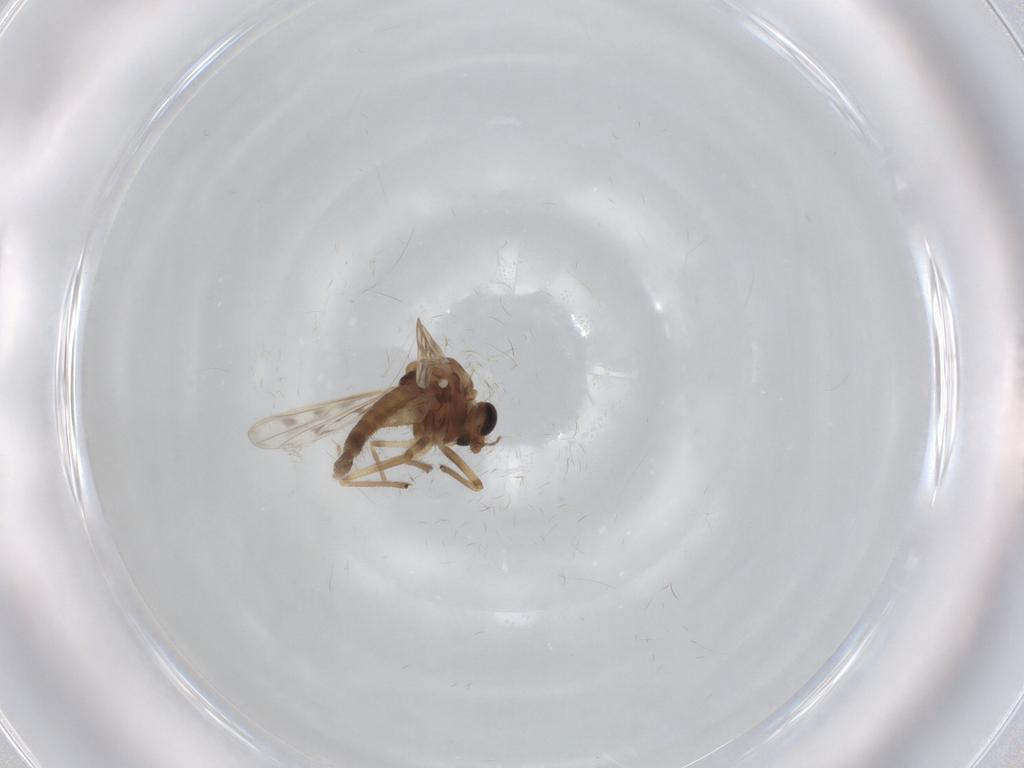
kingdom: Animalia
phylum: Arthropoda
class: Insecta
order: Diptera
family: Chironomidae
